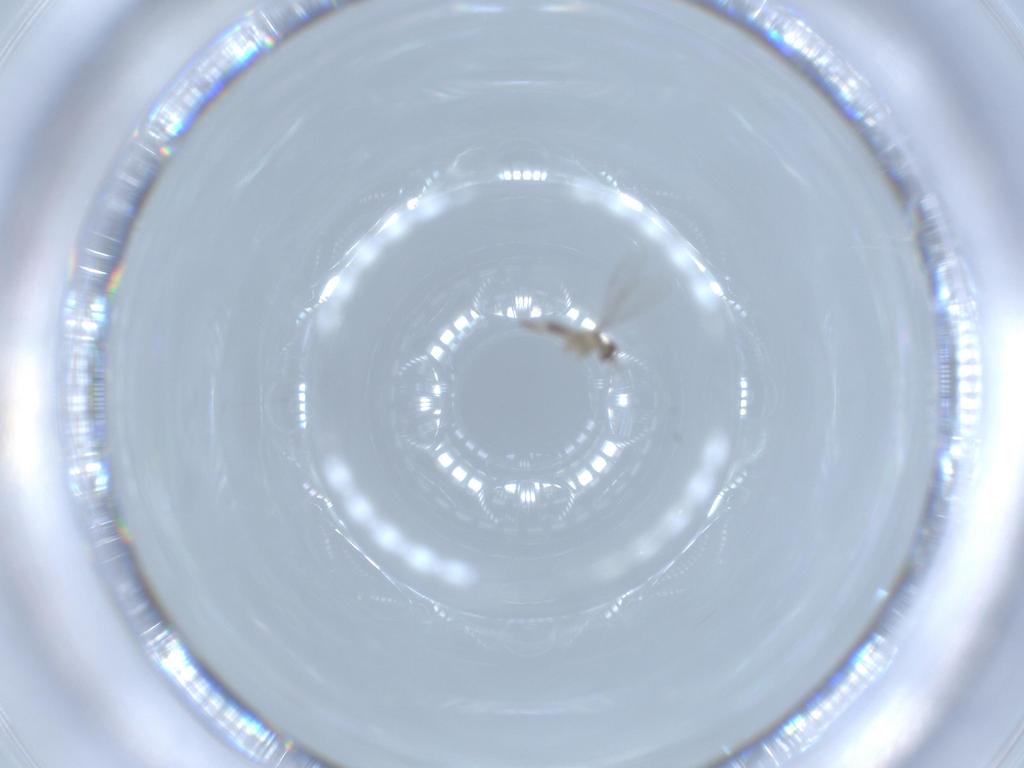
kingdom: Animalia
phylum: Arthropoda
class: Insecta
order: Diptera
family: Cecidomyiidae
